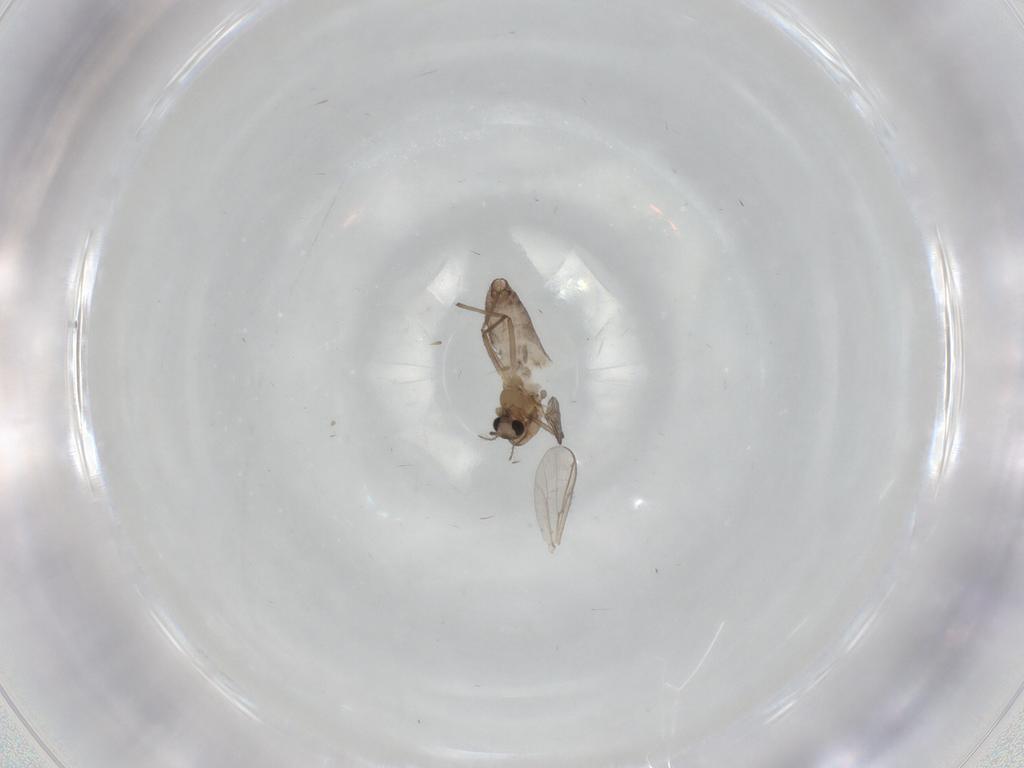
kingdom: Animalia
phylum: Arthropoda
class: Insecta
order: Diptera
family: Chironomidae
